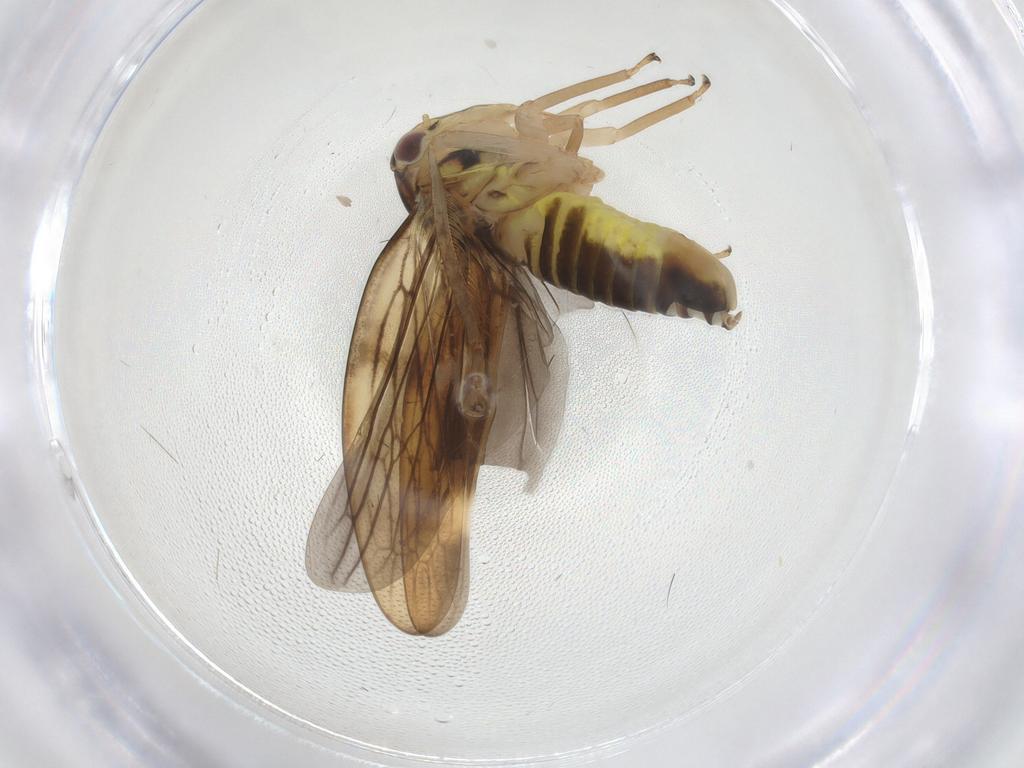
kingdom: Animalia
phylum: Arthropoda
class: Insecta
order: Hemiptera
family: Cicadellidae
